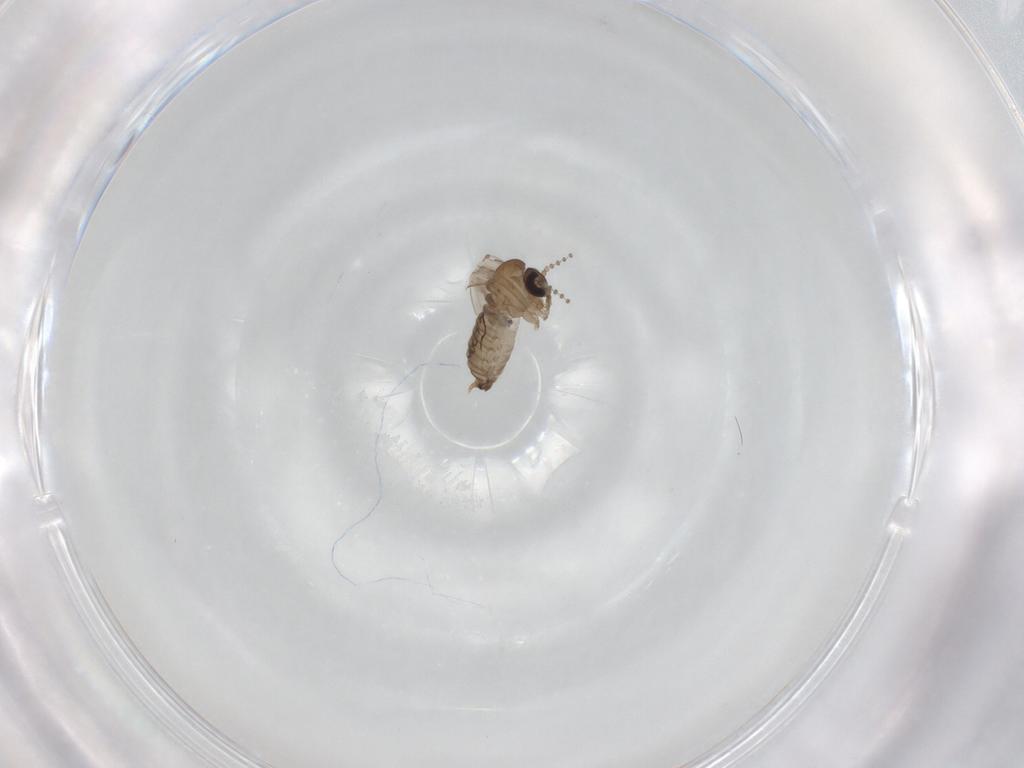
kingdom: Animalia
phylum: Arthropoda
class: Insecta
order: Diptera
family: Psychodidae
